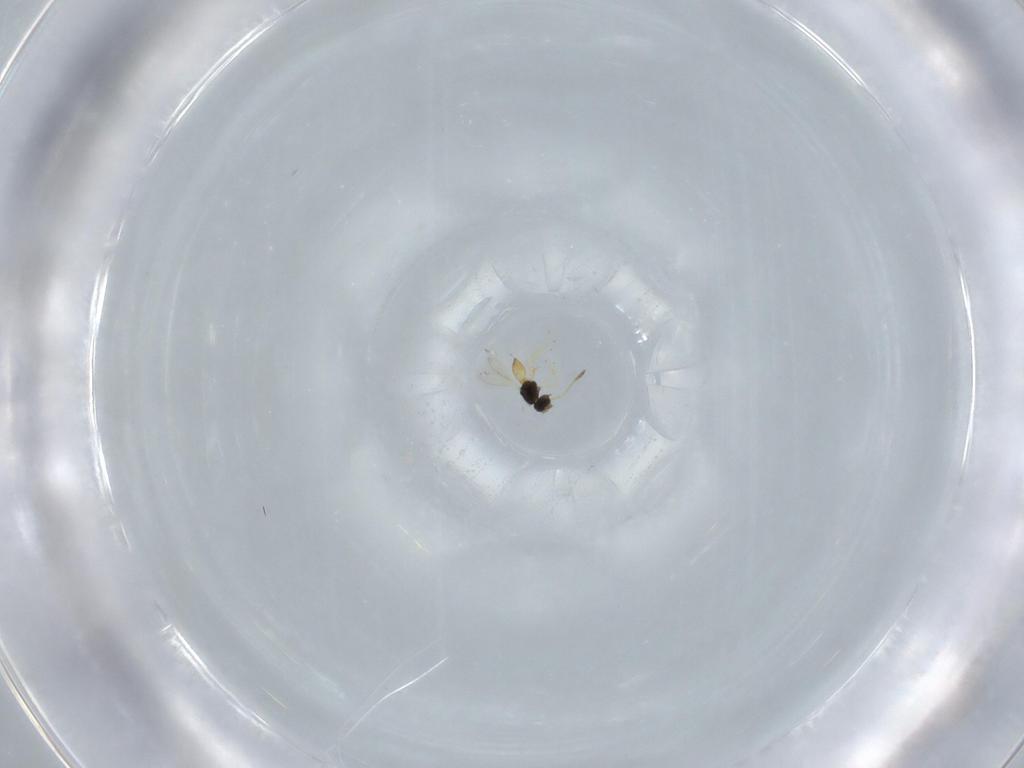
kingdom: Animalia
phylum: Arthropoda
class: Insecta
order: Hymenoptera
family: Scelionidae
